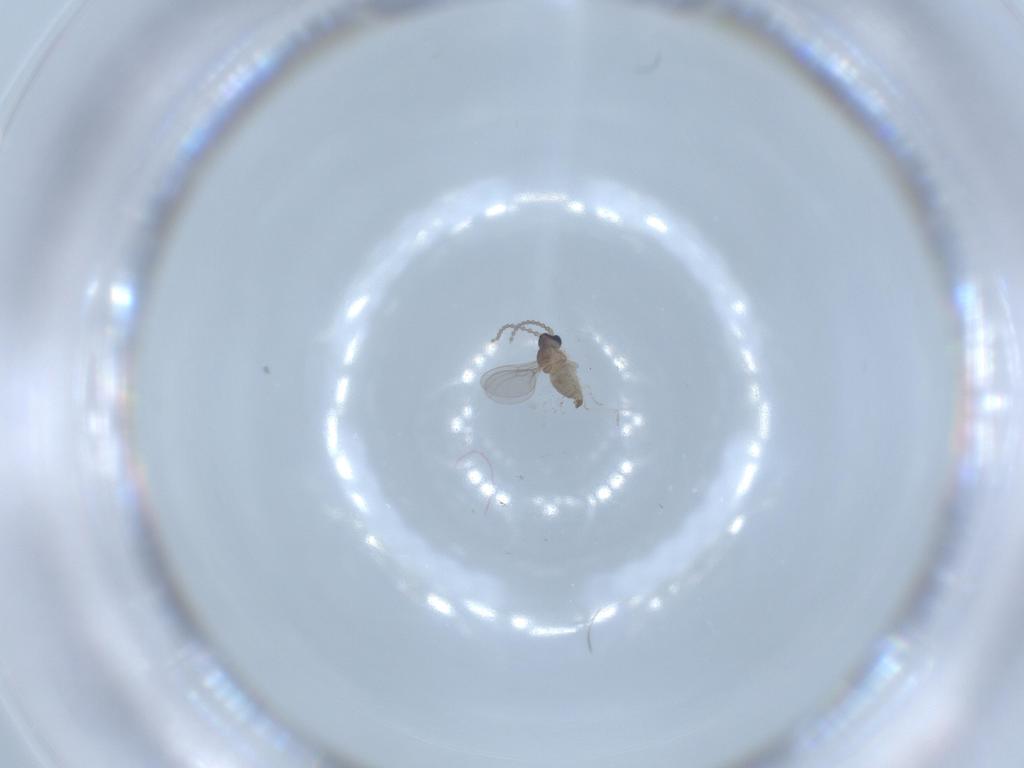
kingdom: Animalia
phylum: Arthropoda
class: Insecta
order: Diptera
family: Cecidomyiidae
